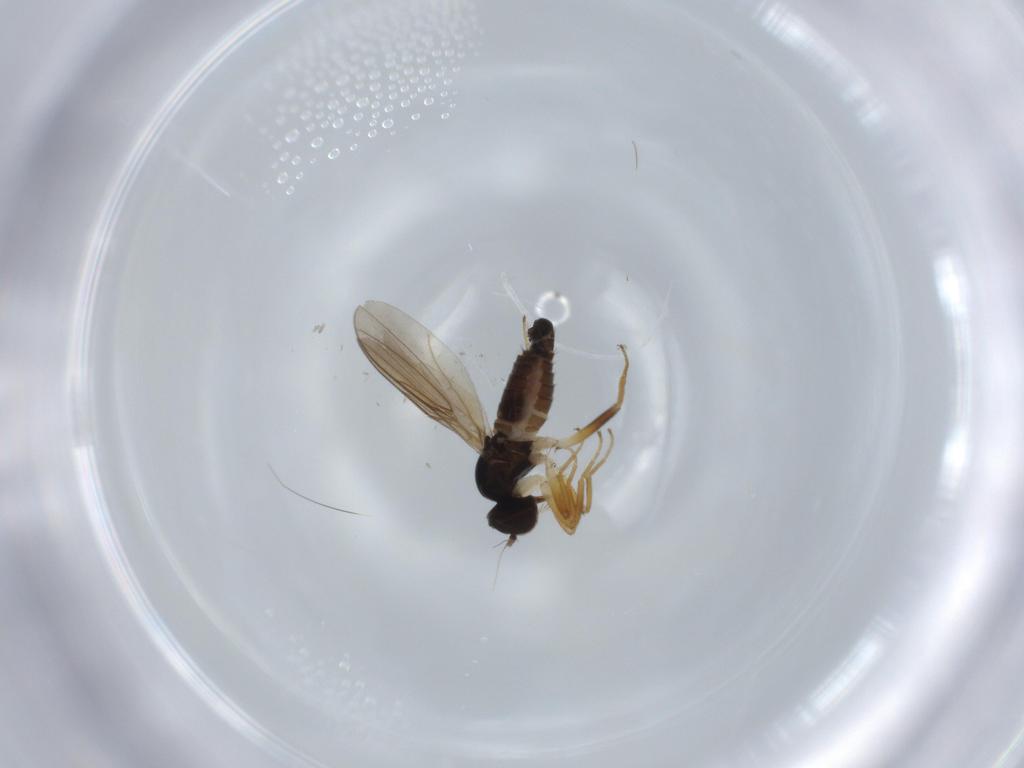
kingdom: Animalia
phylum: Arthropoda
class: Insecta
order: Diptera
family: Hybotidae
